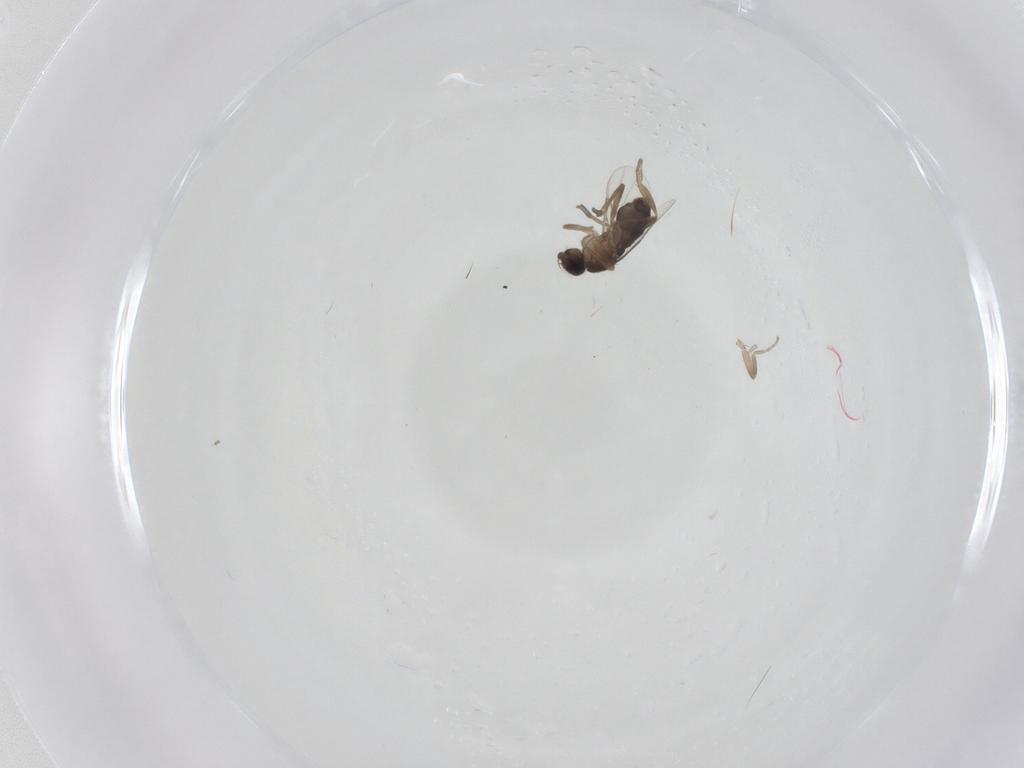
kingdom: Animalia
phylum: Arthropoda
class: Insecta
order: Diptera
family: Phoridae
